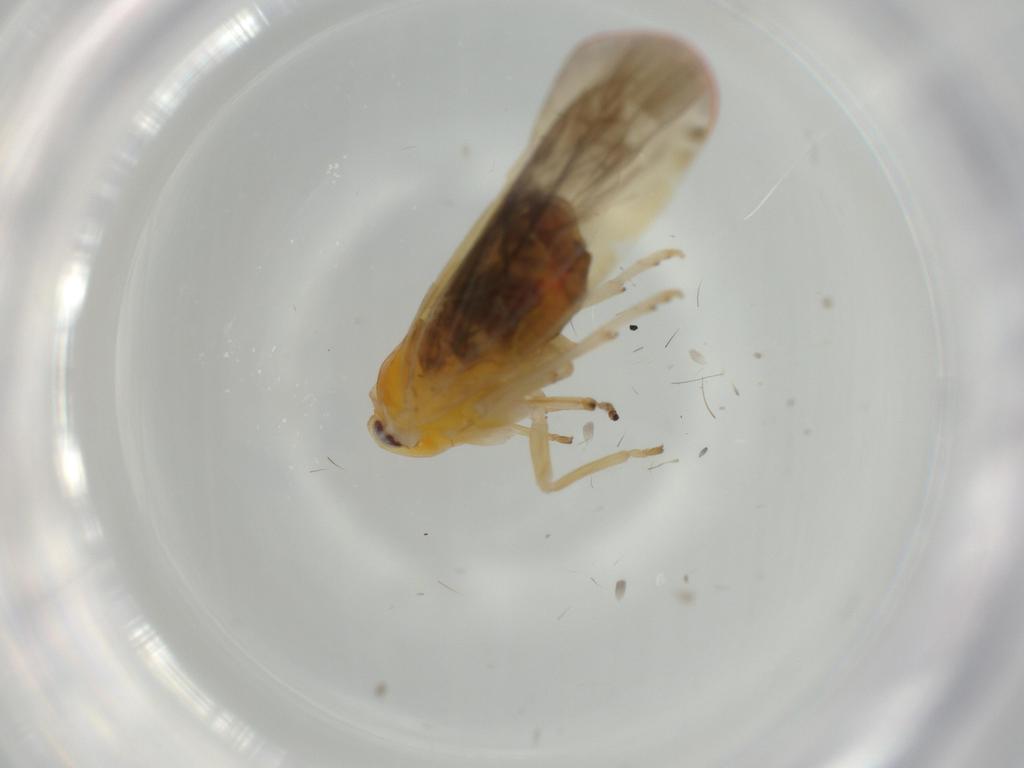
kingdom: Animalia
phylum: Arthropoda
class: Insecta
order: Hemiptera
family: Derbidae
